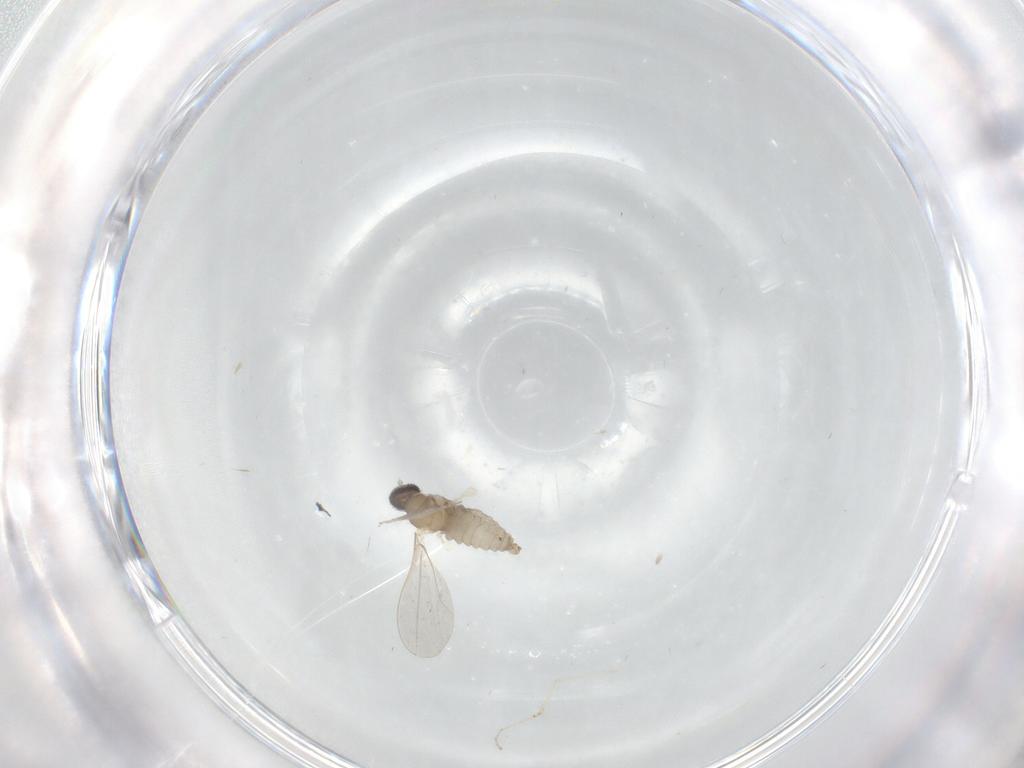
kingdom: Animalia
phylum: Arthropoda
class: Insecta
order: Diptera
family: Cecidomyiidae
